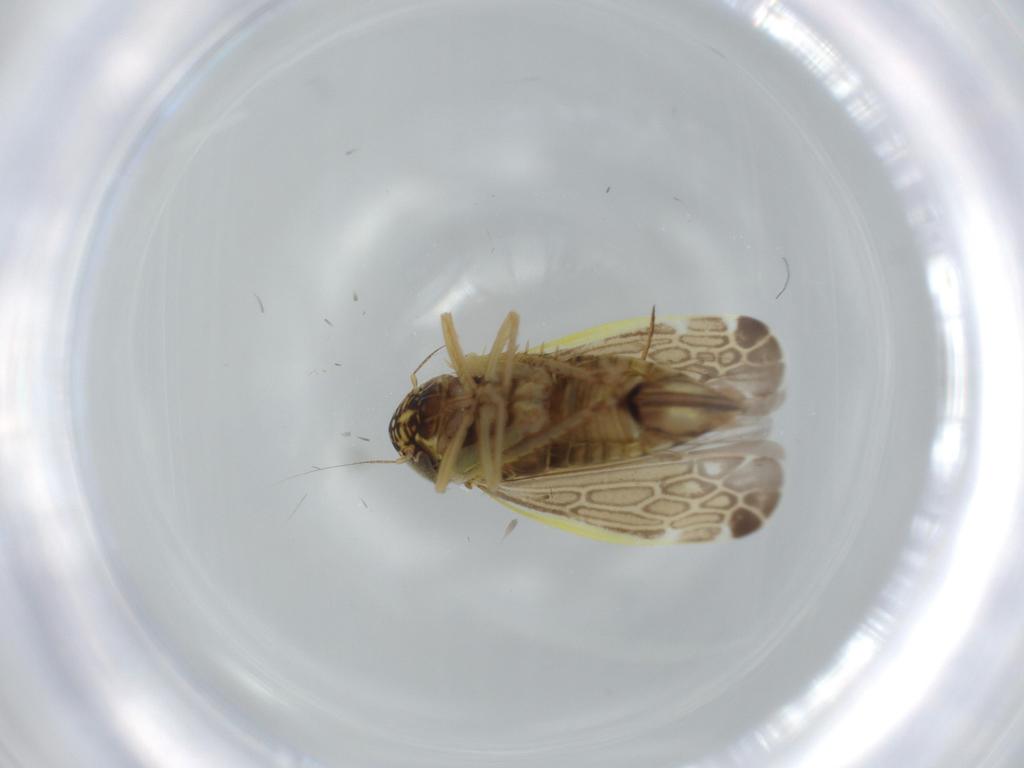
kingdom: Animalia
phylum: Arthropoda
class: Insecta
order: Hemiptera
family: Cicadellidae
